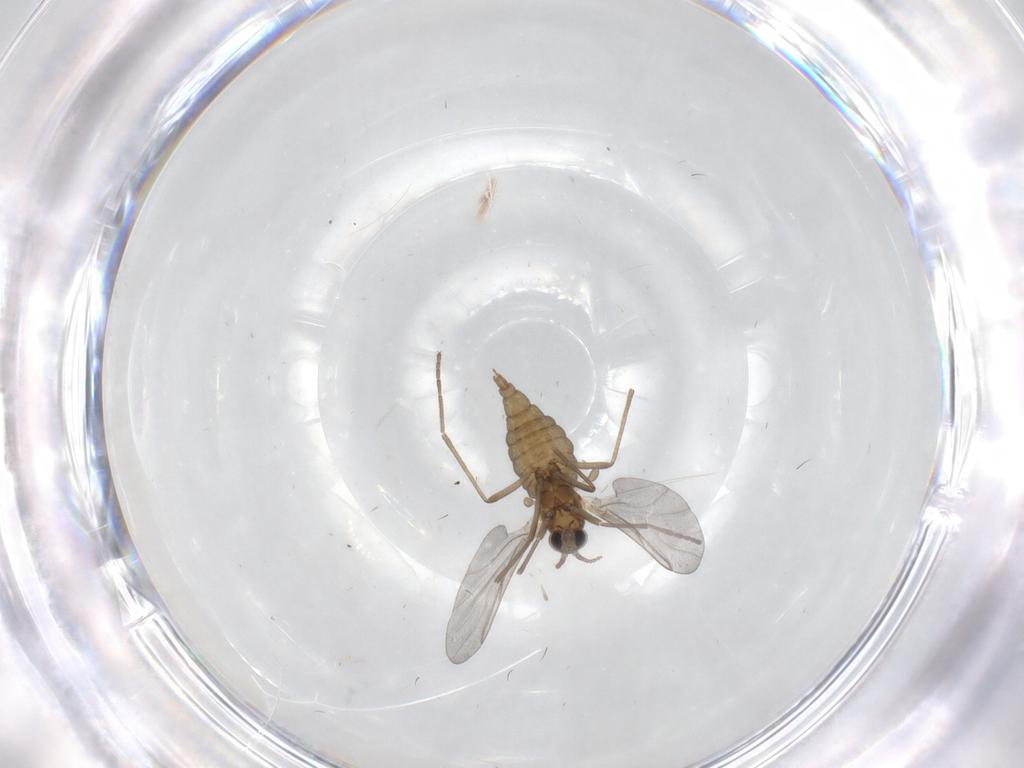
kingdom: Animalia
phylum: Arthropoda
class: Insecta
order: Diptera
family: Cecidomyiidae
